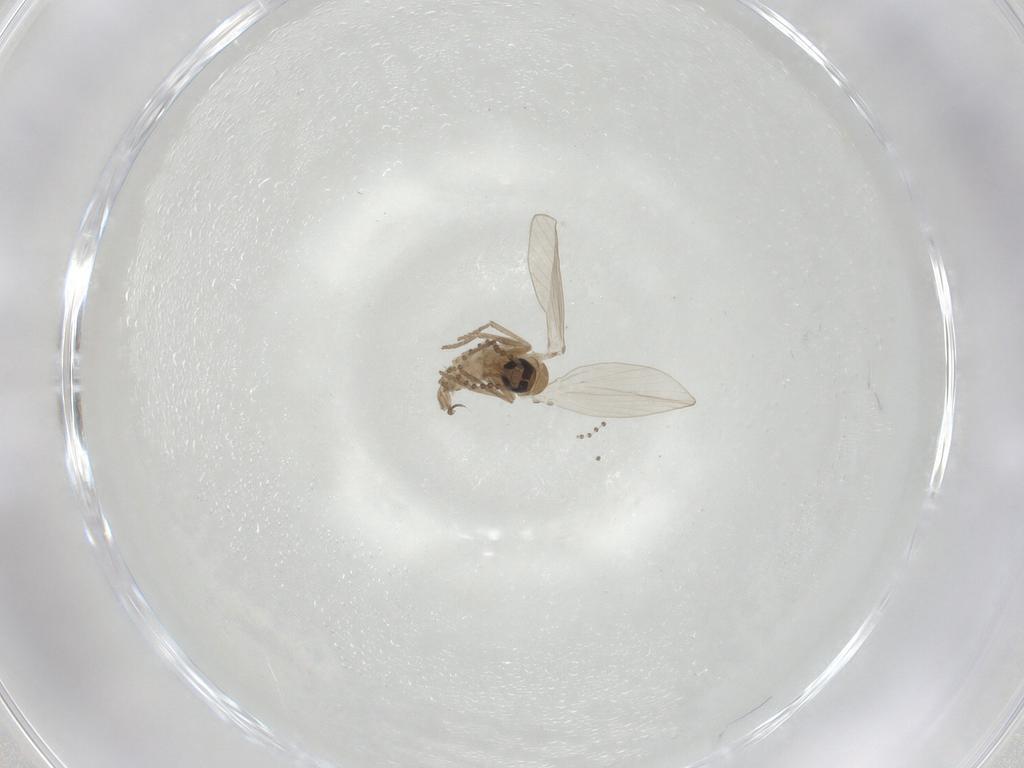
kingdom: Animalia
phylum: Arthropoda
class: Insecta
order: Diptera
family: Psychodidae
